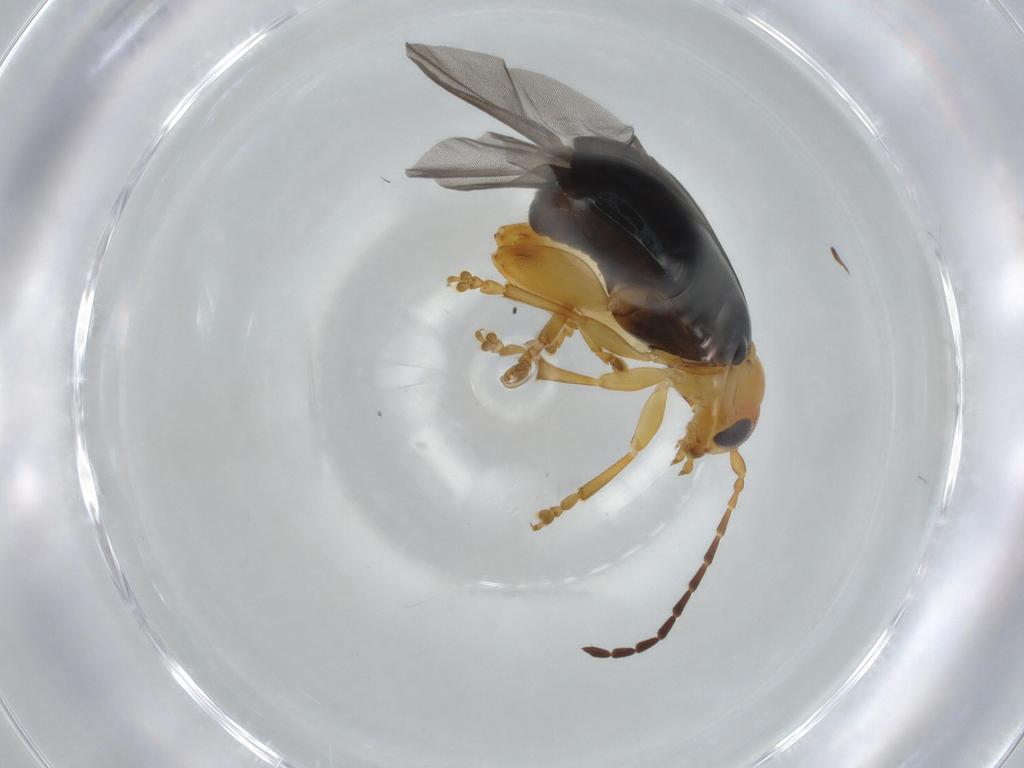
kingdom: Animalia
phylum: Arthropoda
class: Insecta
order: Coleoptera
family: Chrysomelidae
